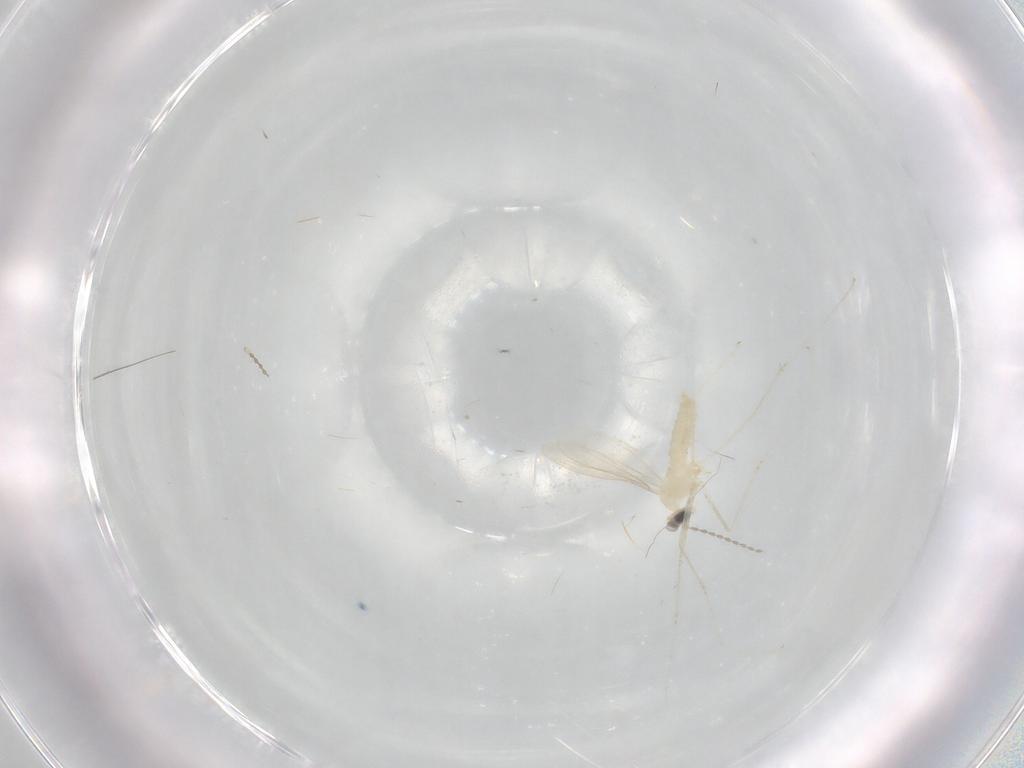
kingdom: Animalia
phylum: Arthropoda
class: Insecta
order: Diptera
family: Cecidomyiidae
